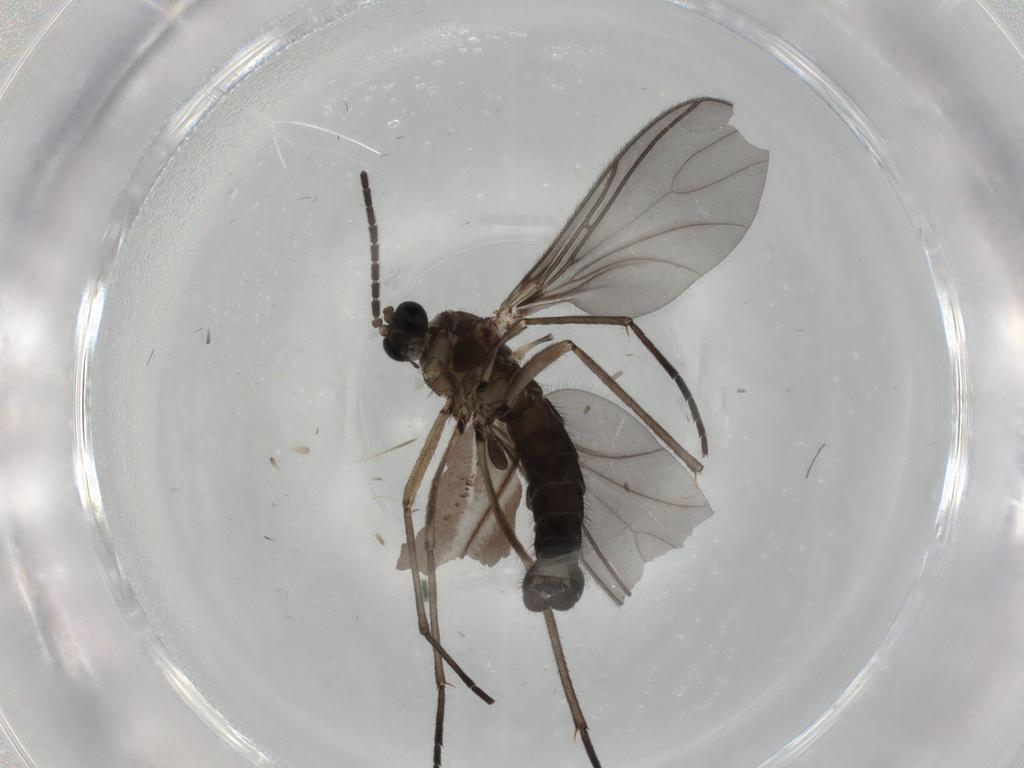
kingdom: Animalia
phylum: Arthropoda
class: Insecta
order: Diptera
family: Sciaridae
